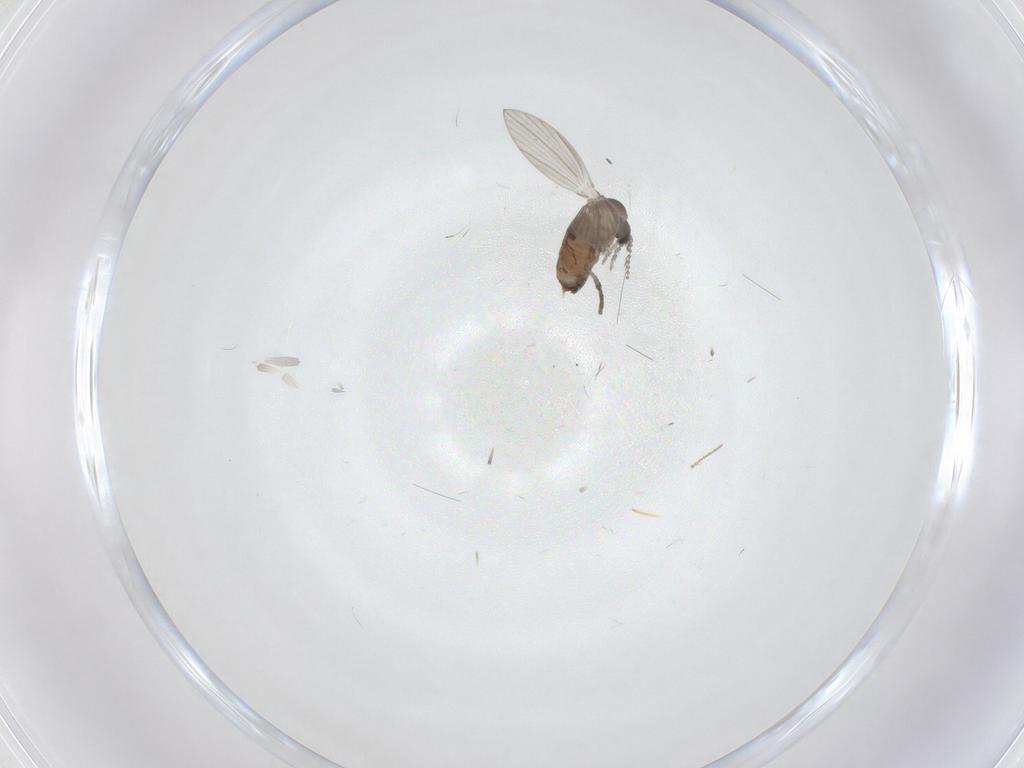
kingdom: Animalia
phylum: Arthropoda
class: Insecta
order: Diptera
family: Psychodidae
